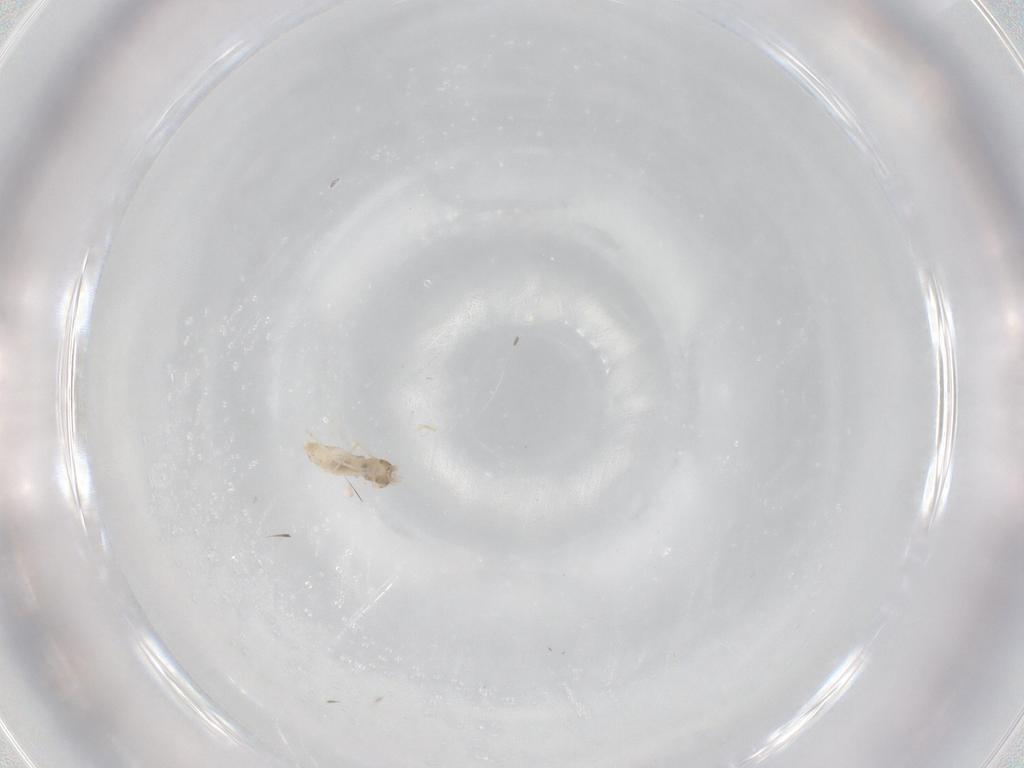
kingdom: Animalia
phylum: Arthropoda
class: Insecta
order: Diptera
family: Cecidomyiidae
